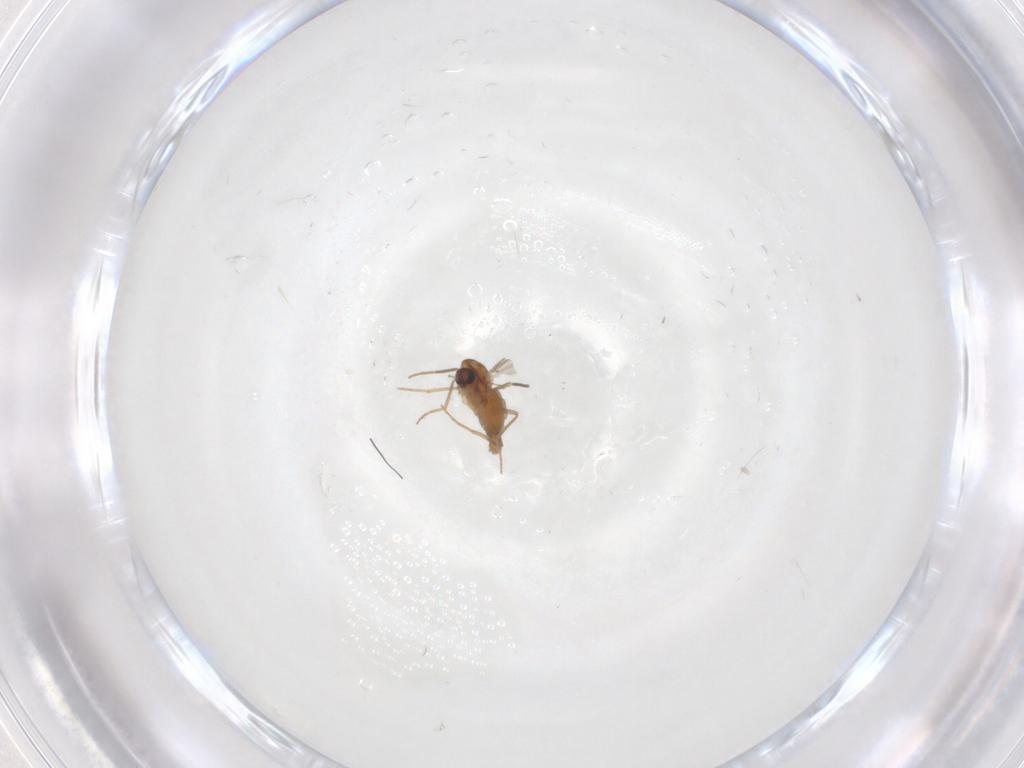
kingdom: Animalia
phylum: Arthropoda
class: Insecta
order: Diptera
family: Chironomidae
